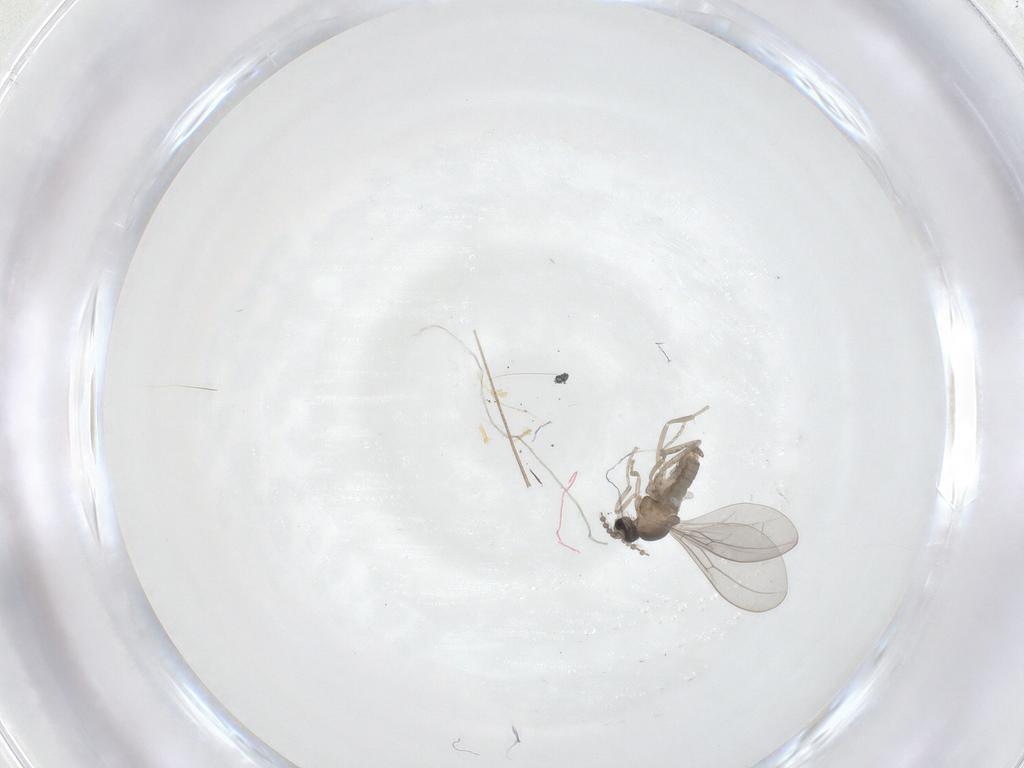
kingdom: Animalia
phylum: Arthropoda
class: Insecta
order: Diptera
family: Cecidomyiidae
